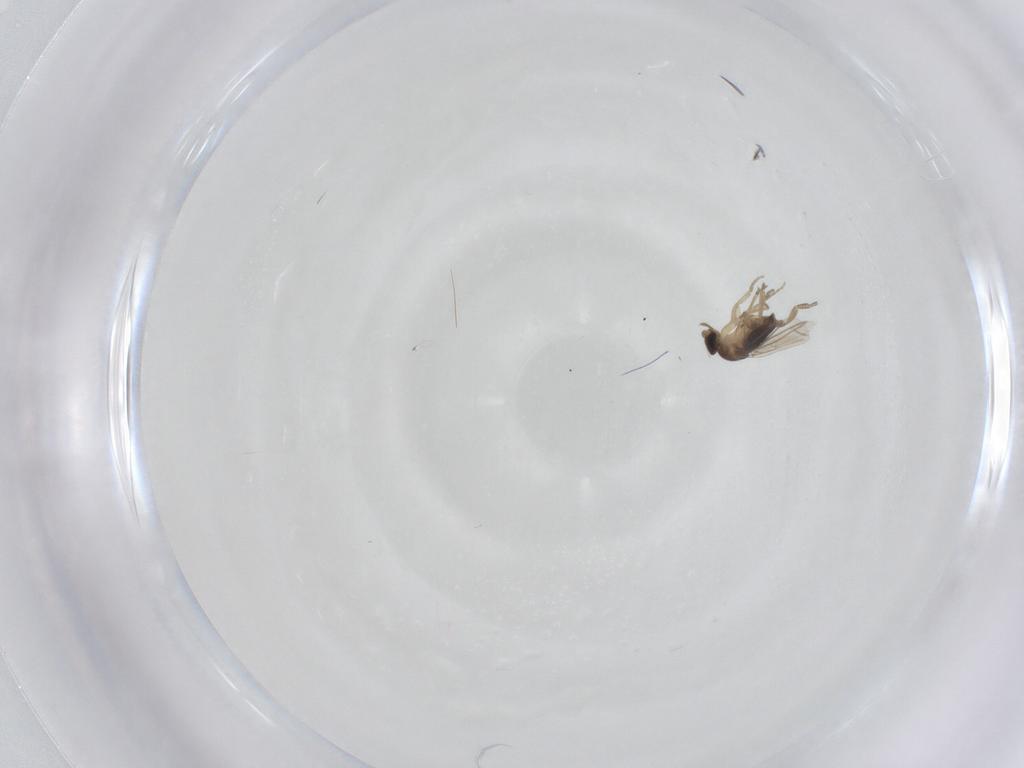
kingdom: Animalia
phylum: Arthropoda
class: Insecta
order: Diptera
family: Phoridae
